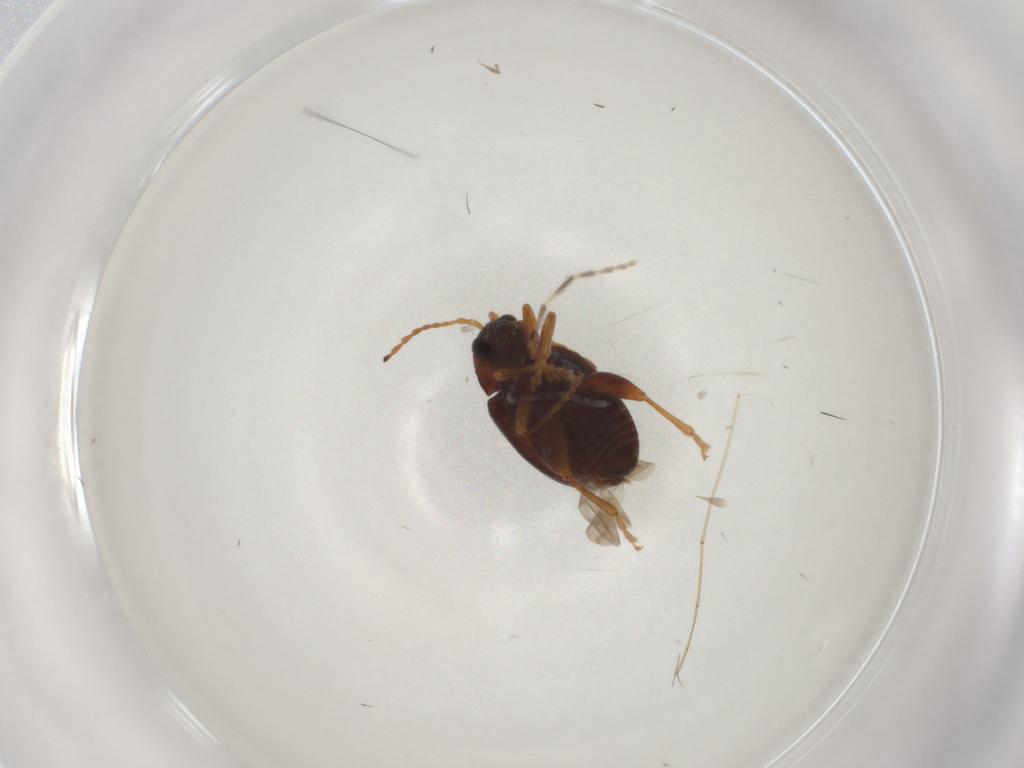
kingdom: Animalia
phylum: Arthropoda
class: Insecta
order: Coleoptera
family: Chrysomelidae
